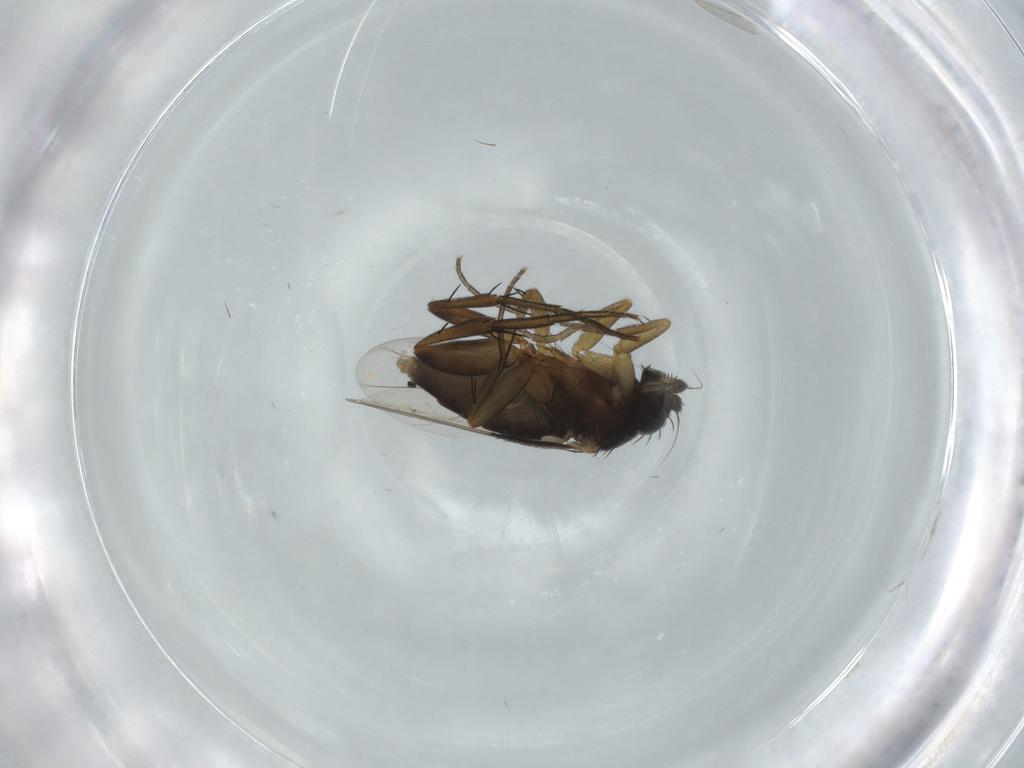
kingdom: Animalia
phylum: Arthropoda
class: Insecta
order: Diptera
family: Phoridae
